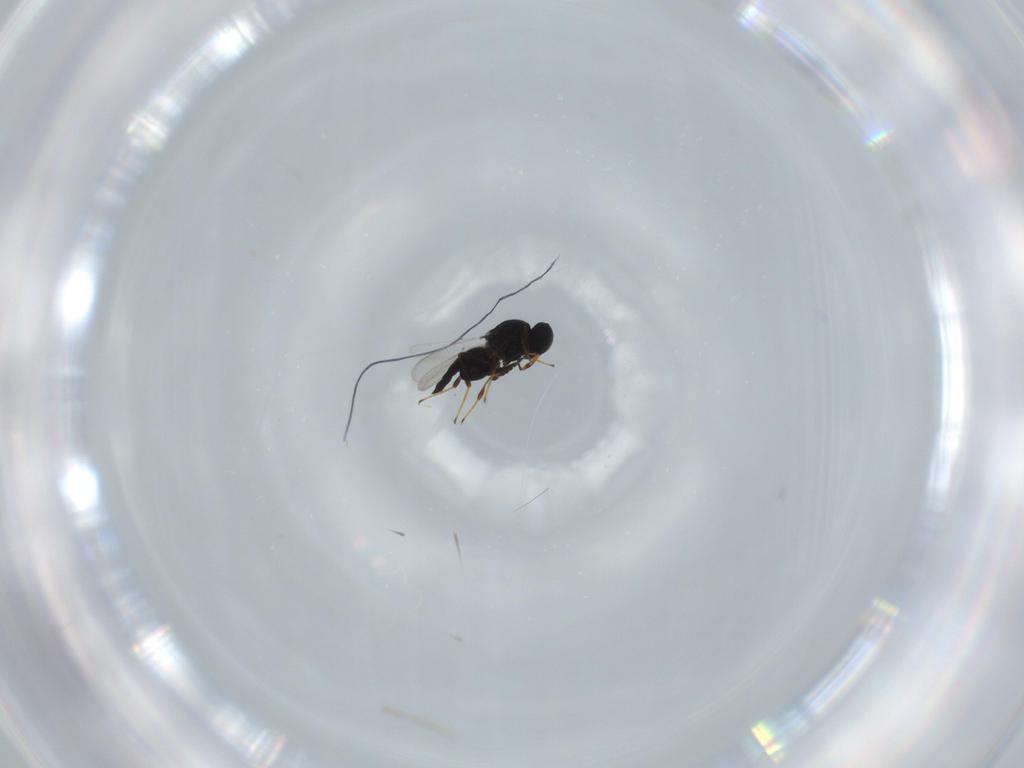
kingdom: Animalia
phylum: Arthropoda
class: Insecta
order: Hymenoptera
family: Platygastridae
